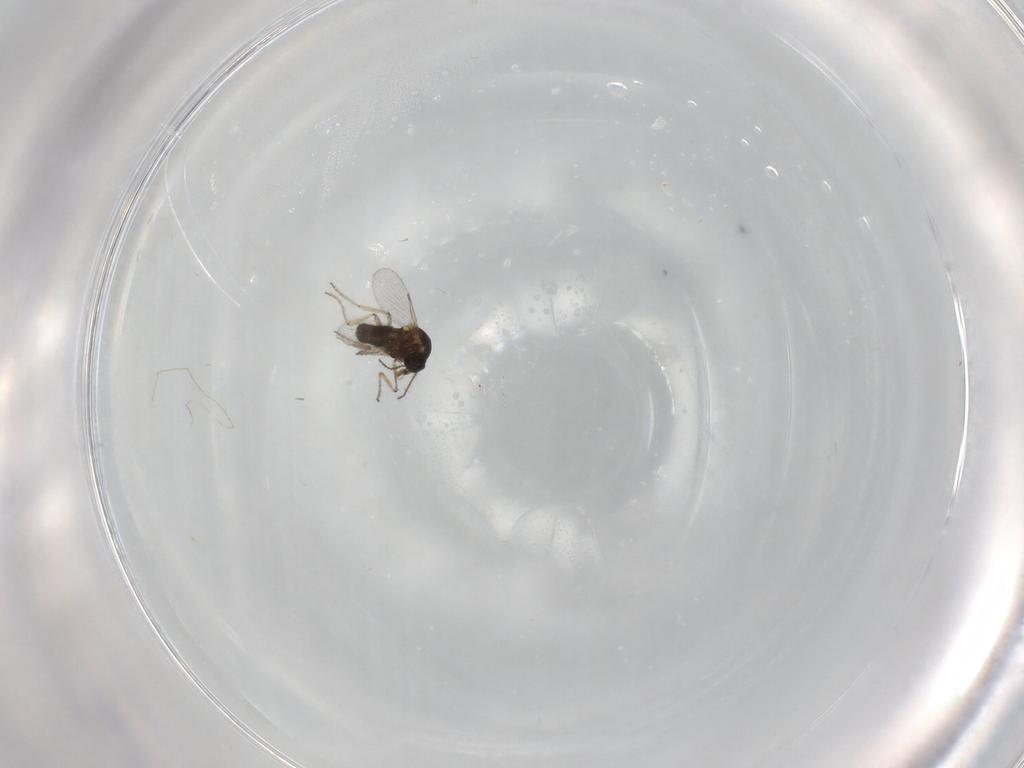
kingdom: Animalia
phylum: Arthropoda
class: Insecta
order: Diptera
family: Ceratopogonidae
